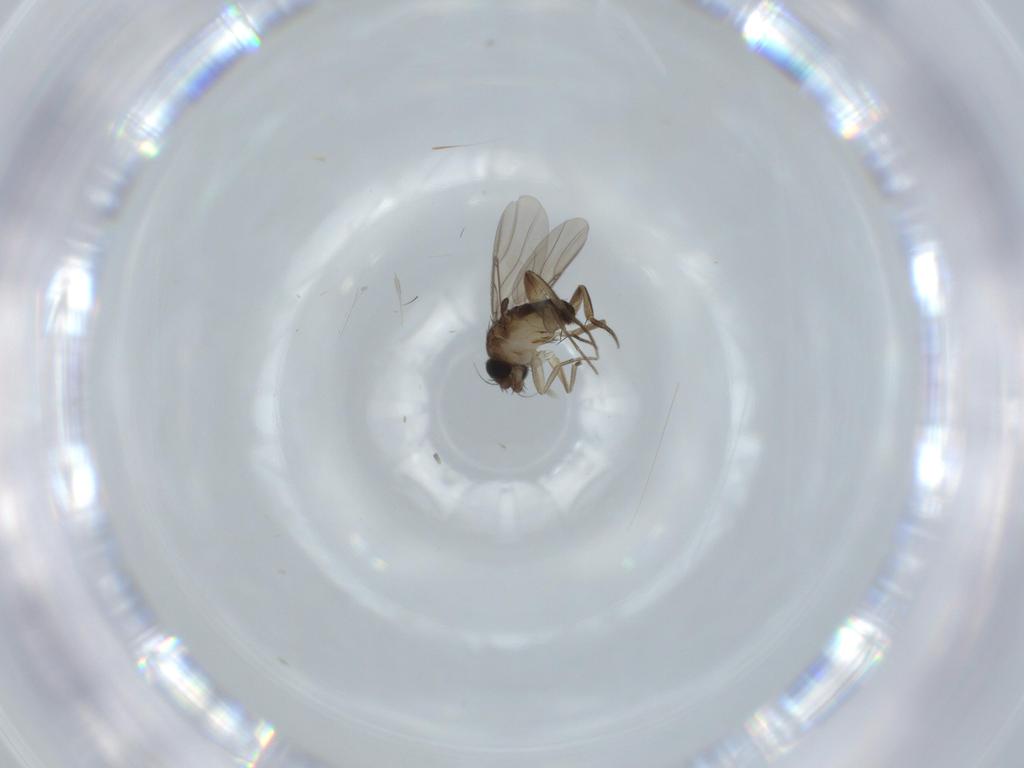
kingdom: Animalia
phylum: Arthropoda
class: Insecta
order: Diptera
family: Phoridae
